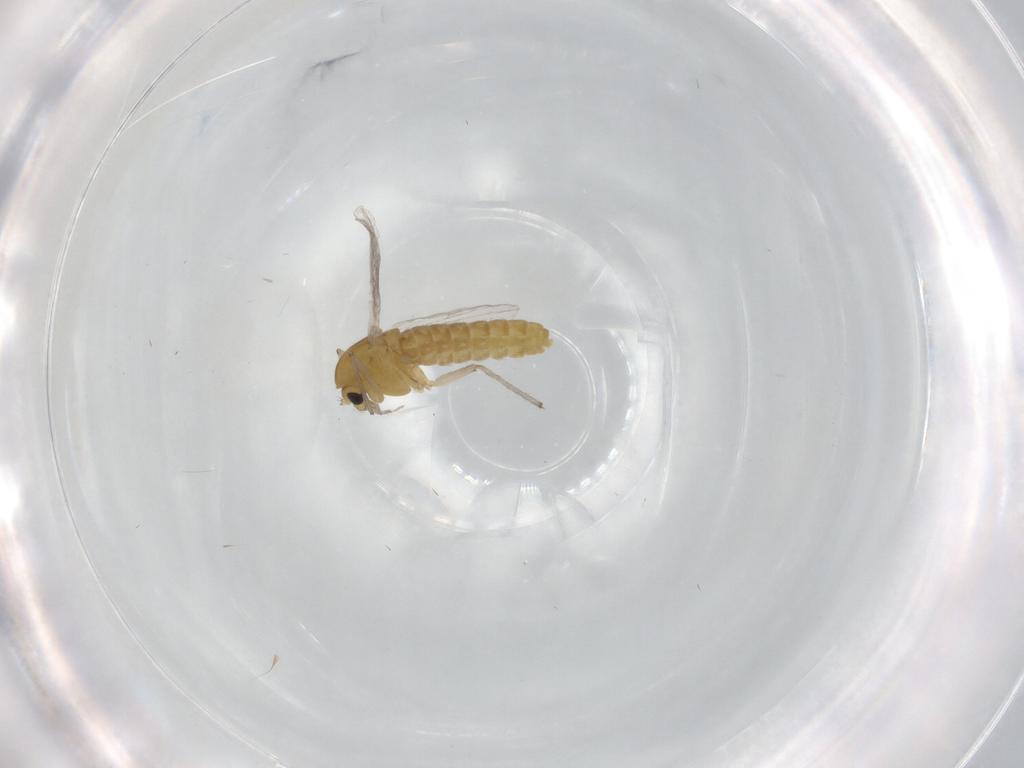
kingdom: Animalia
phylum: Arthropoda
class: Insecta
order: Diptera
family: Chironomidae
